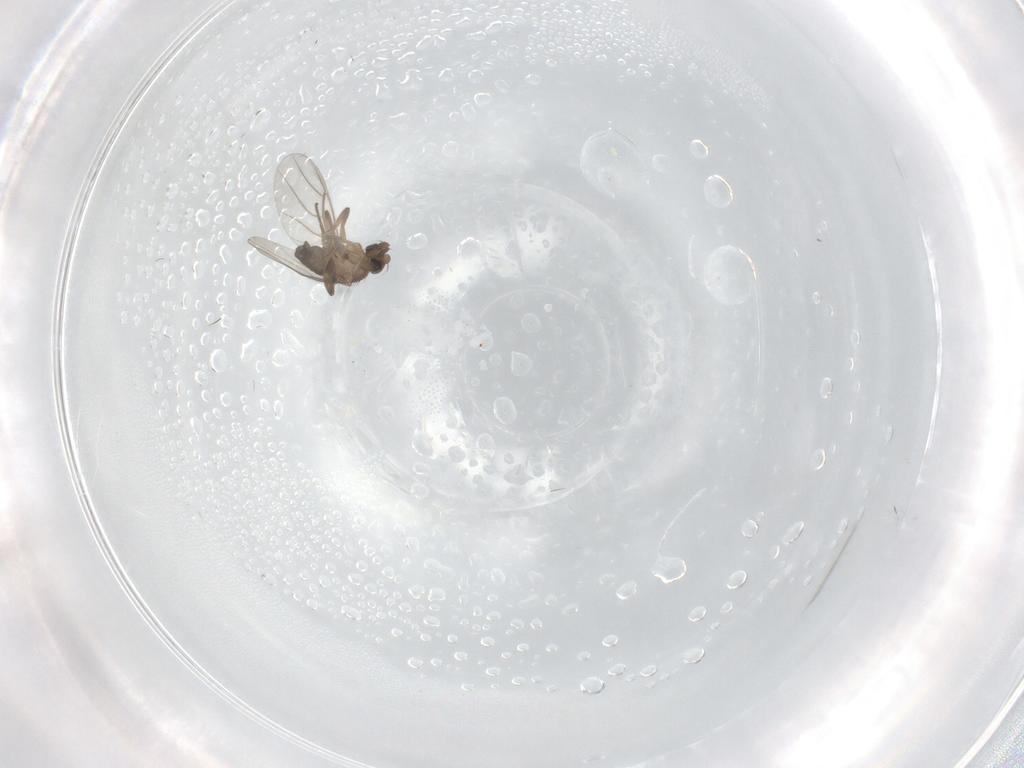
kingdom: Animalia
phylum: Arthropoda
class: Insecta
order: Diptera
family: Phoridae
